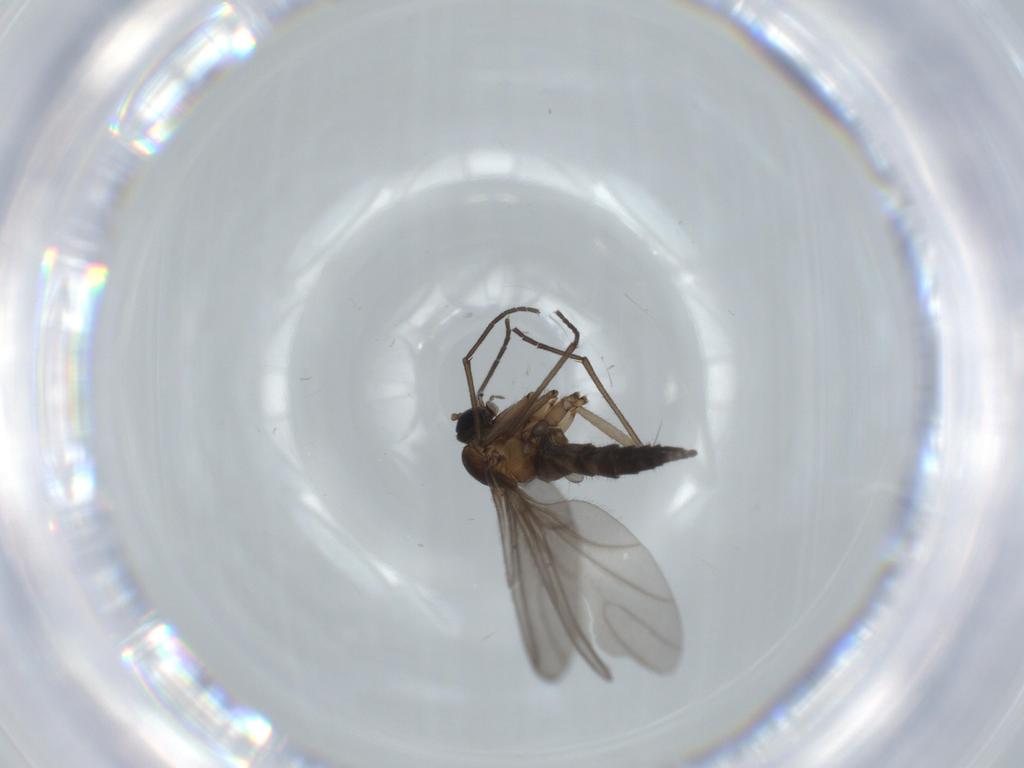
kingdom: Animalia
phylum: Arthropoda
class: Insecta
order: Diptera
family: Sciaridae
